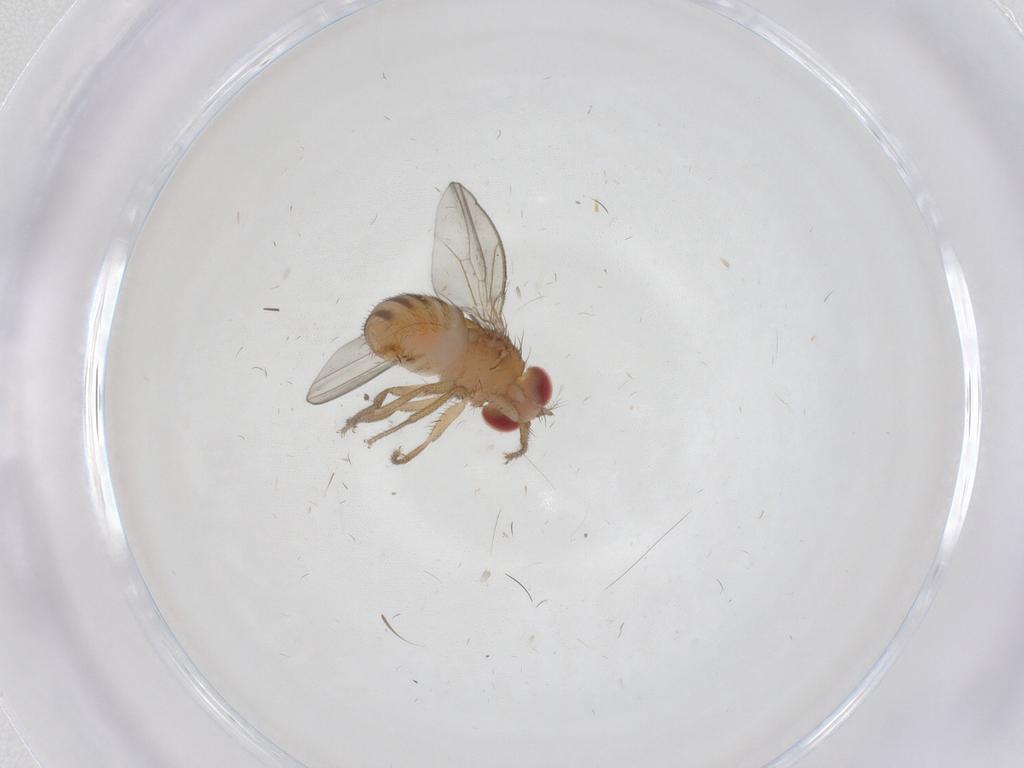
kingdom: Animalia
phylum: Arthropoda
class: Insecta
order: Diptera
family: Drosophilidae
